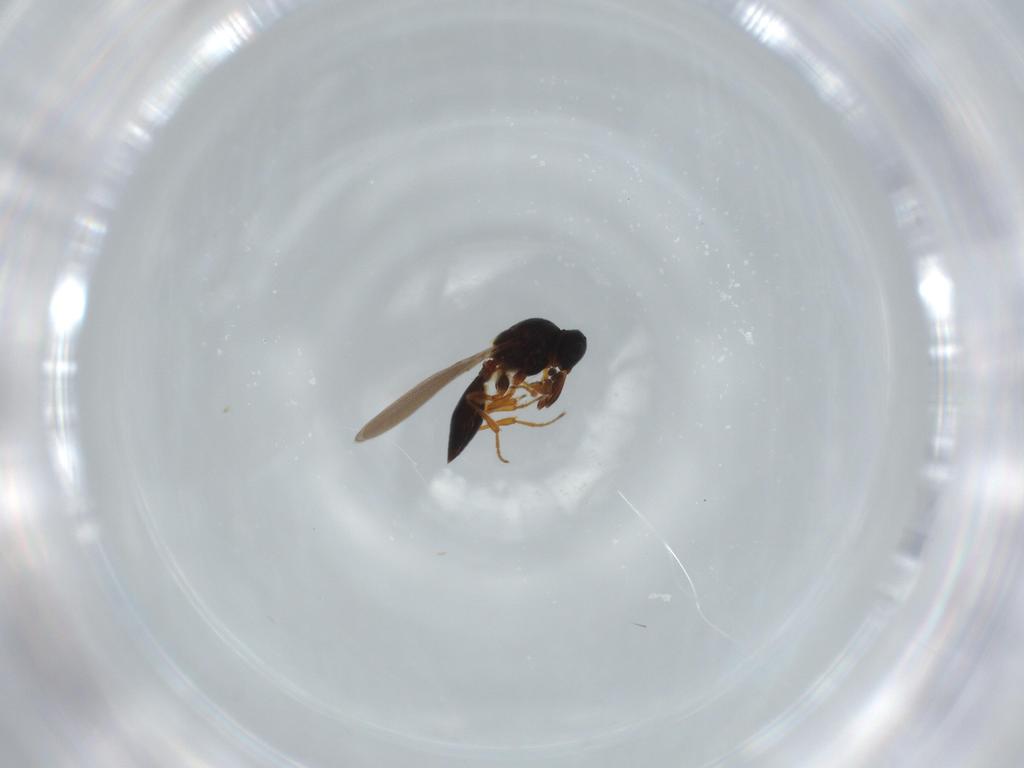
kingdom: Animalia
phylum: Arthropoda
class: Insecta
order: Hymenoptera
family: Platygastridae
